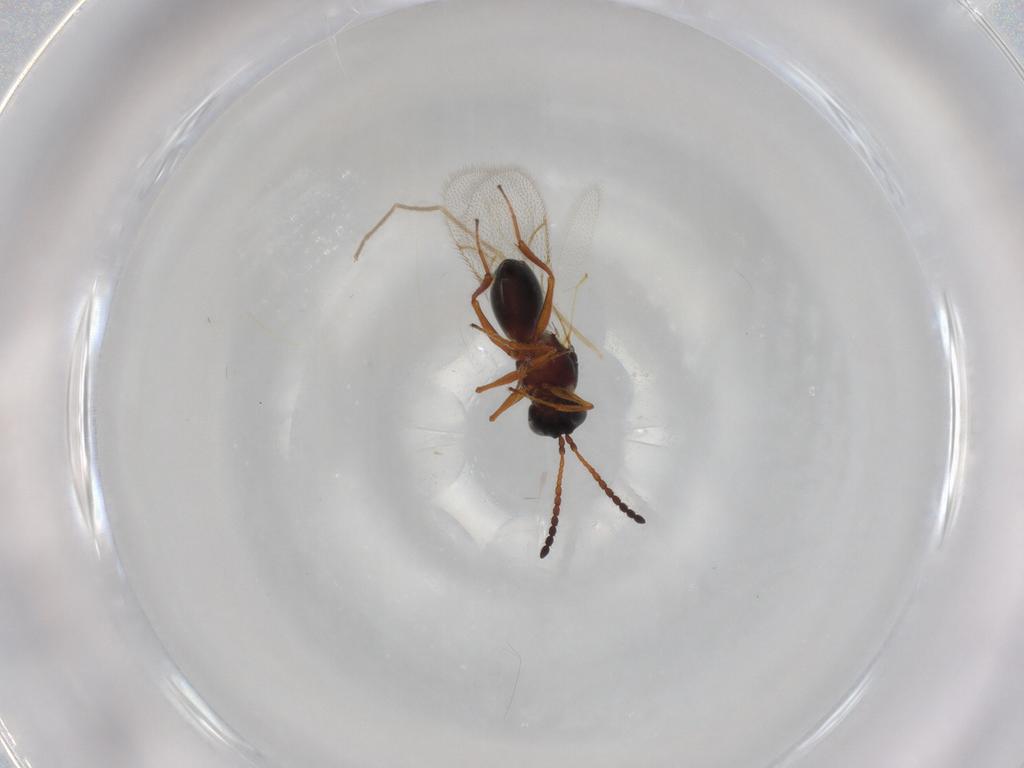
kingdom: Animalia
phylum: Arthropoda
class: Insecta
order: Hymenoptera
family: Figitidae
